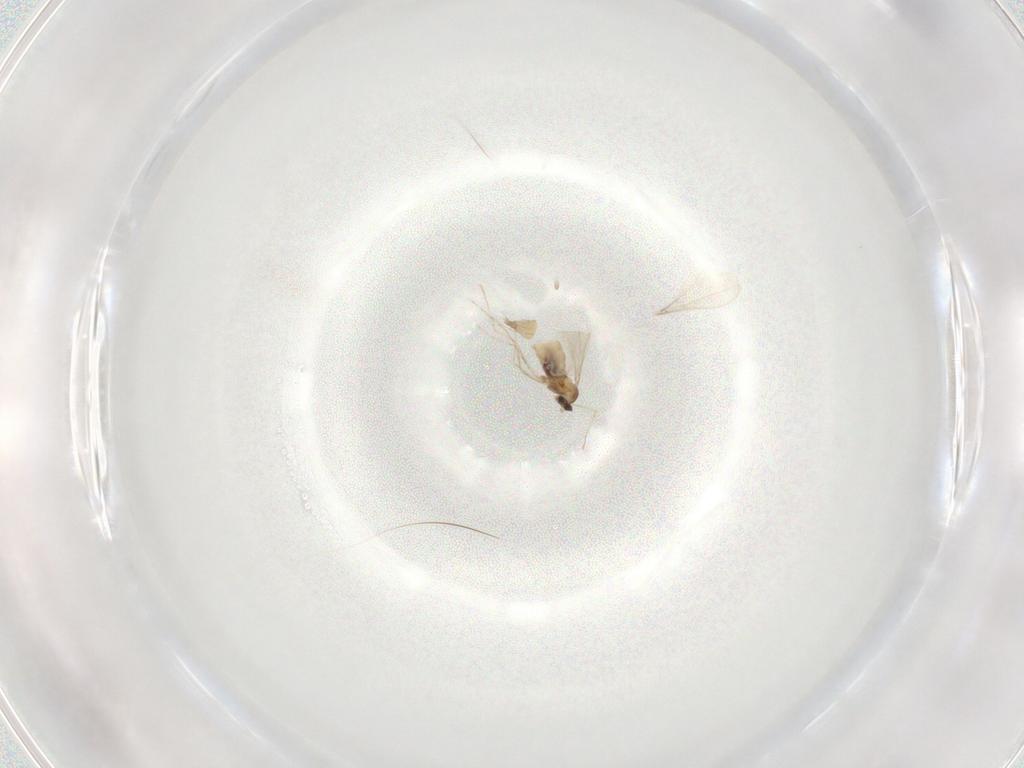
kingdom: Animalia
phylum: Arthropoda
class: Insecta
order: Diptera
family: Cecidomyiidae
